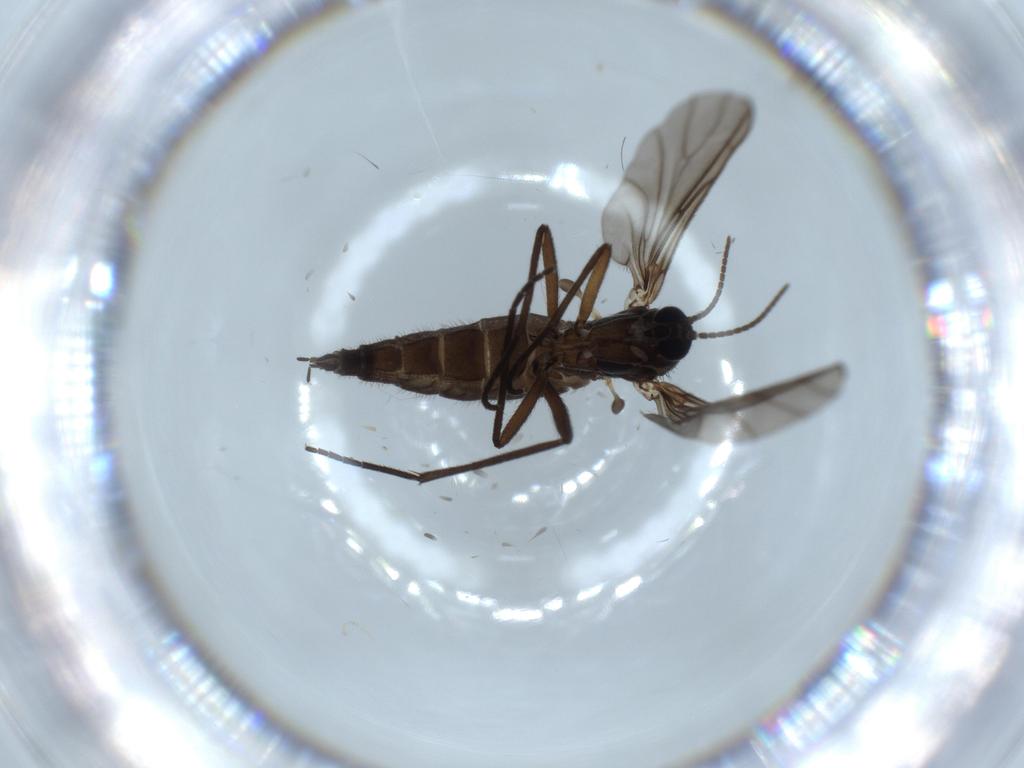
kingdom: Animalia
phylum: Arthropoda
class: Insecta
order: Diptera
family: Sciaridae
